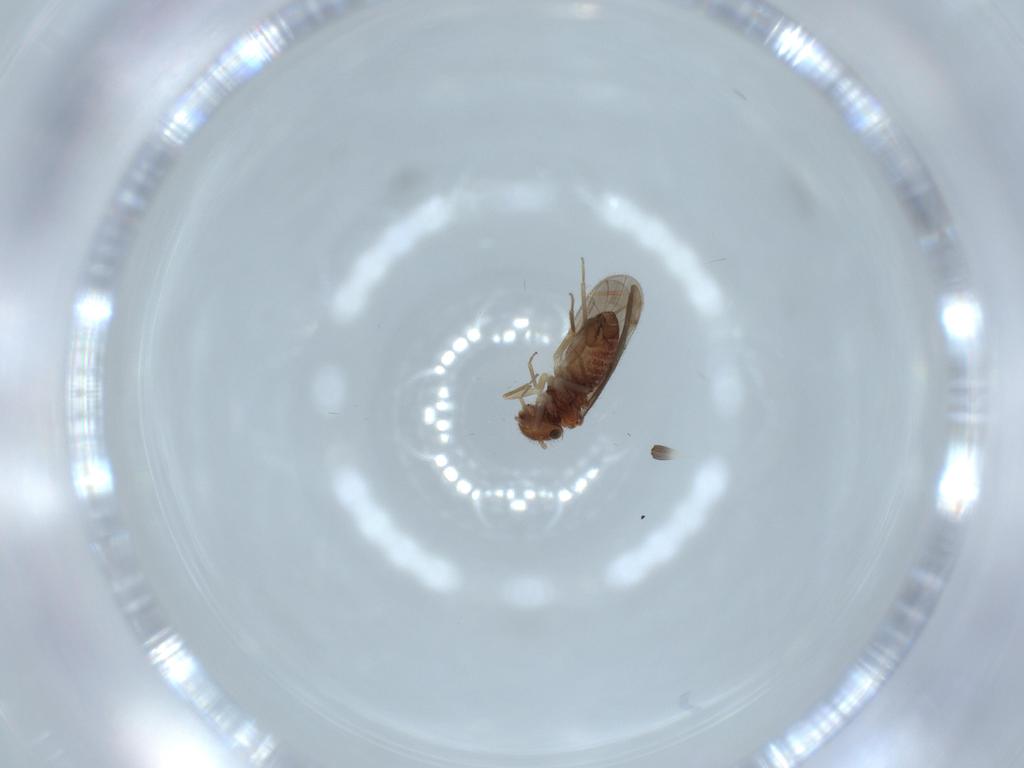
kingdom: Animalia
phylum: Arthropoda
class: Insecta
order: Psocodea
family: Ectopsocidae
